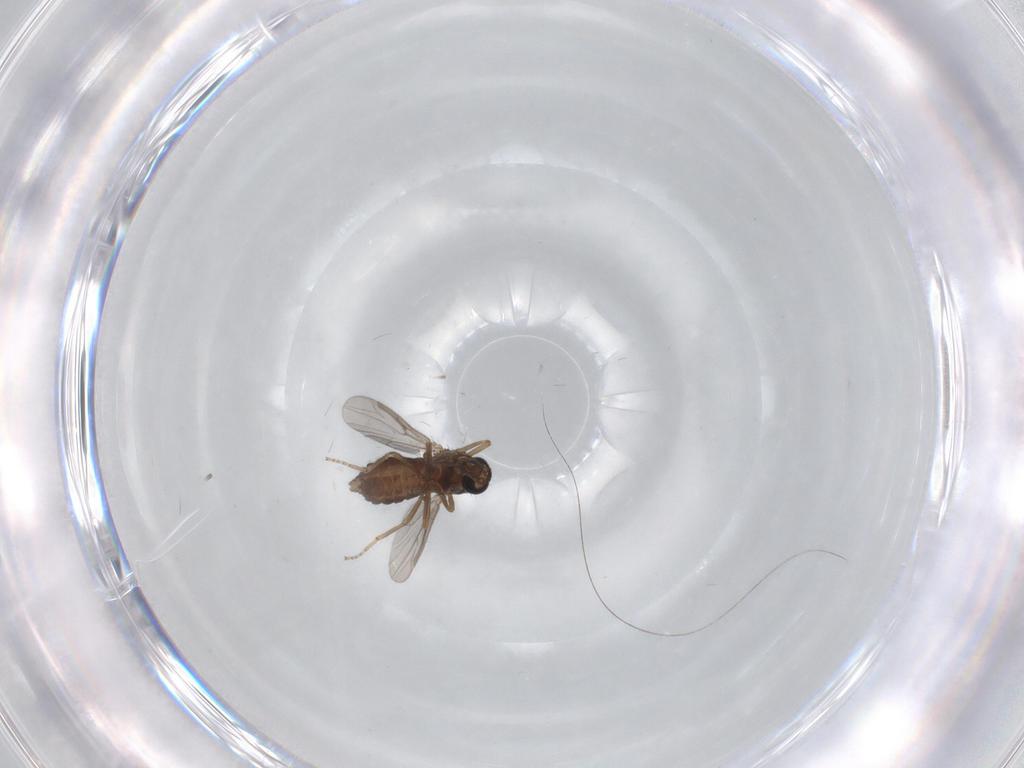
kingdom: Animalia
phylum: Arthropoda
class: Insecta
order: Diptera
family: Ceratopogonidae
